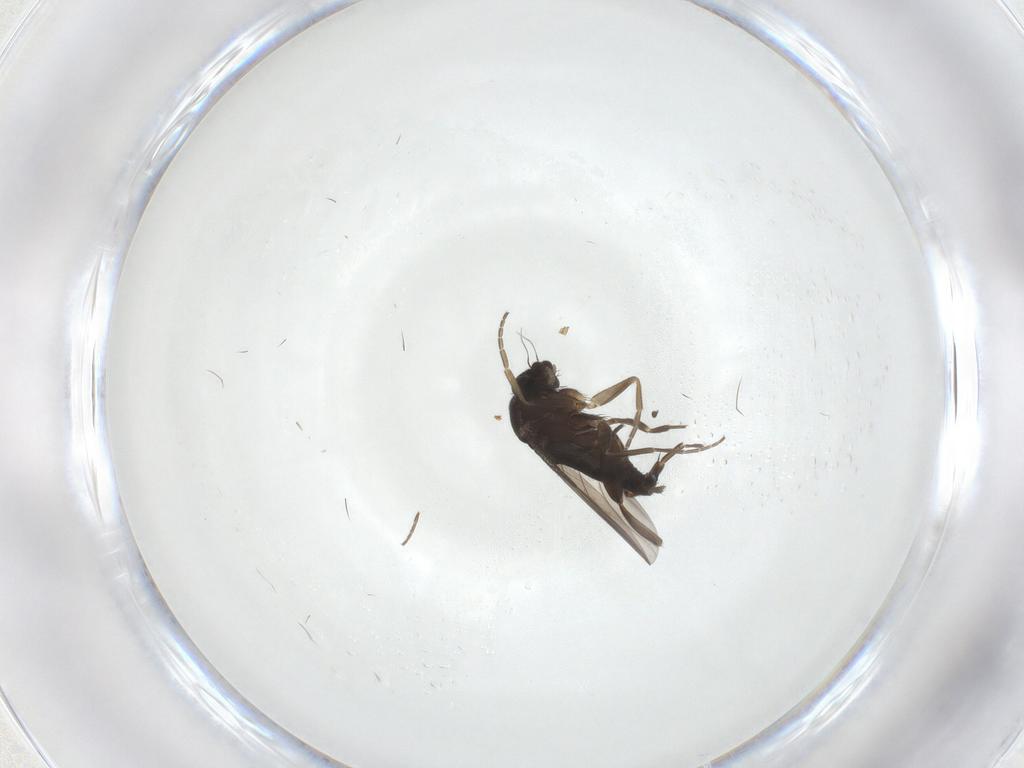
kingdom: Animalia
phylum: Arthropoda
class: Insecta
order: Diptera
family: Phoridae
